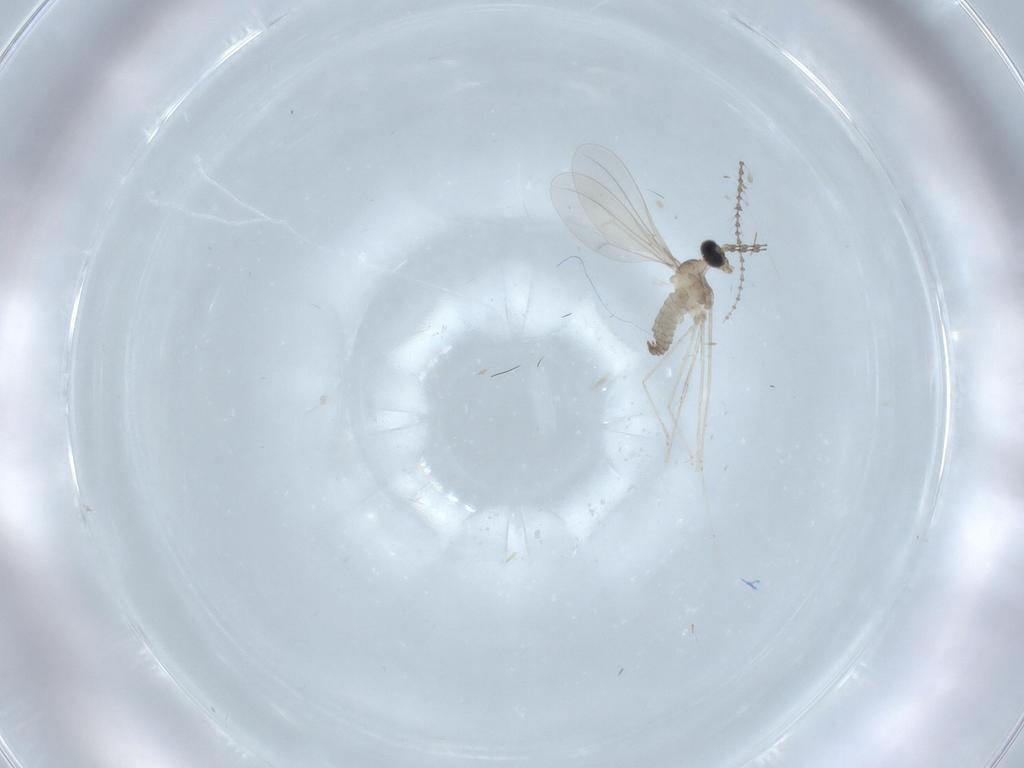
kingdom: Animalia
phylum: Arthropoda
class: Insecta
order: Diptera
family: Cecidomyiidae
